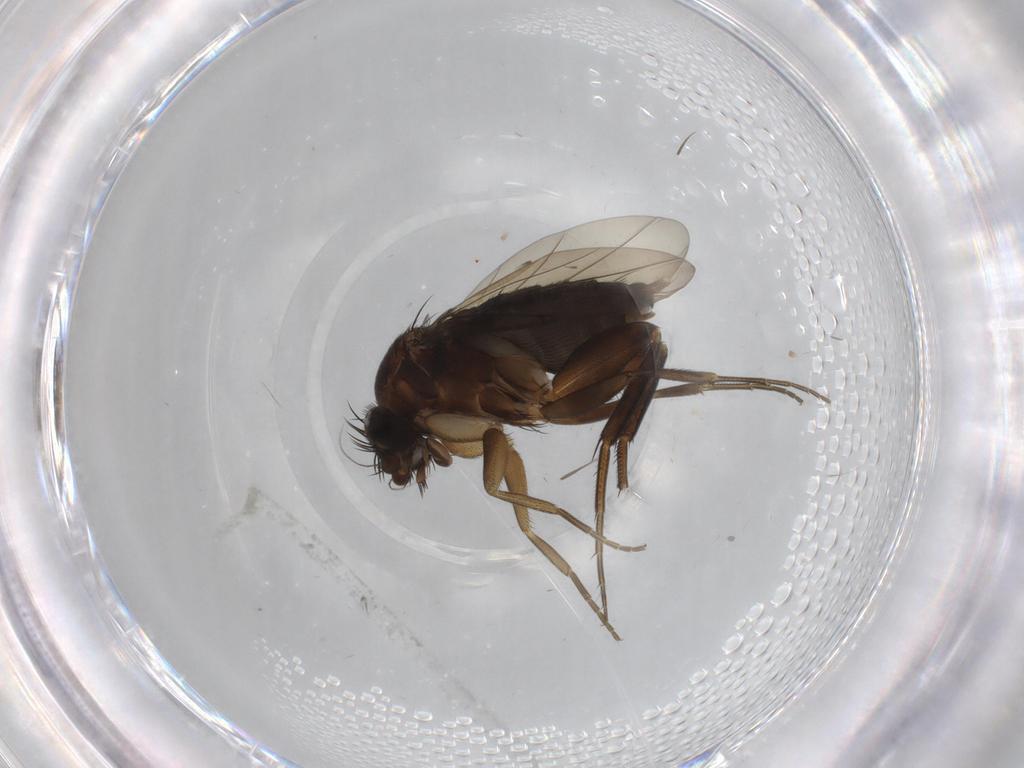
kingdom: Animalia
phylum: Arthropoda
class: Insecta
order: Diptera
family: Phoridae
